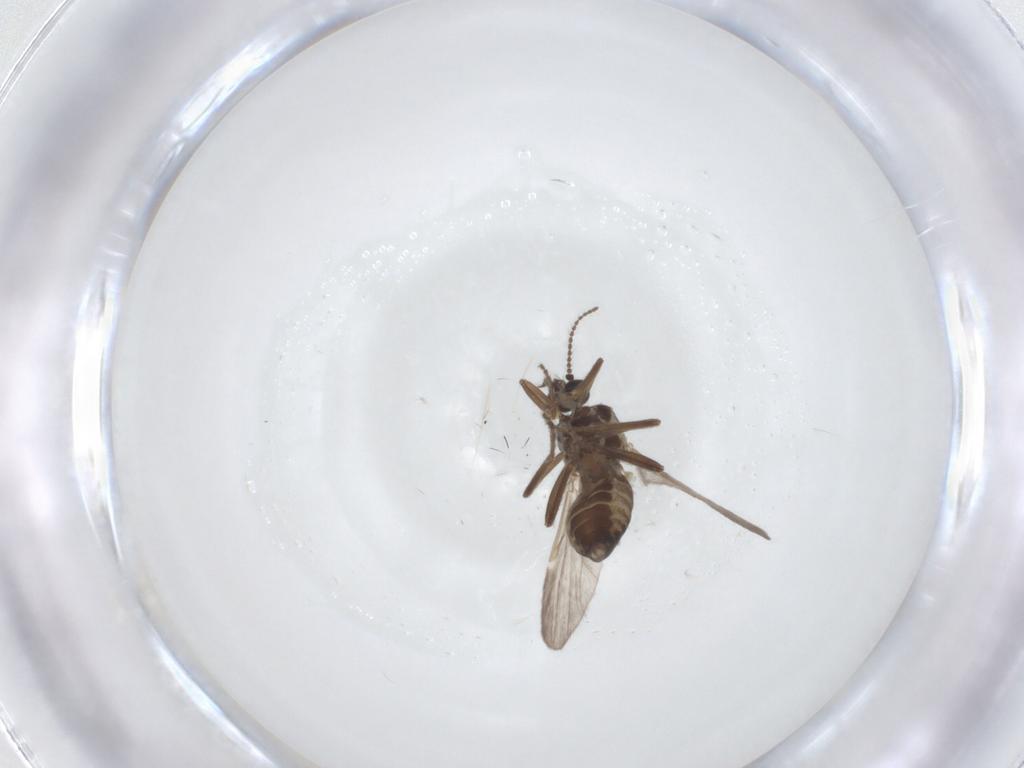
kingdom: Animalia
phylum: Arthropoda
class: Insecta
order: Diptera
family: Ceratopogonidae
